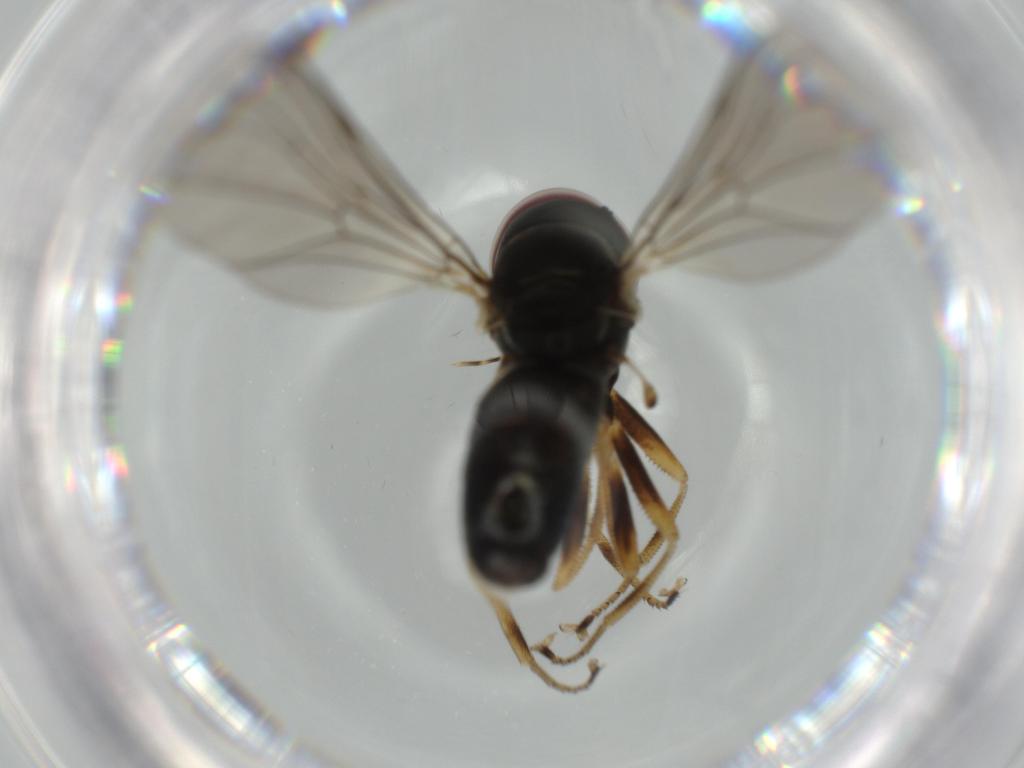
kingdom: Animalia
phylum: Arthropoda
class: Insecta
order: Diptera
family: Pipunculidae
